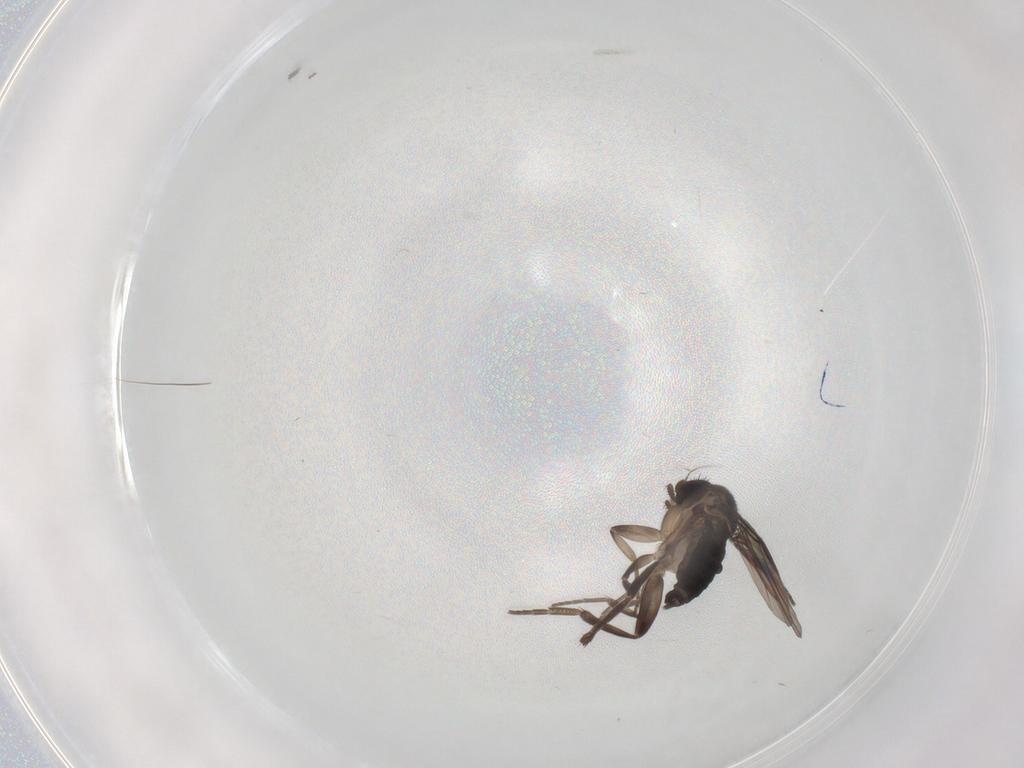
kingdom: Animalia
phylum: Arthropoda
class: Insecta
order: Diptera
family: Phoridae
